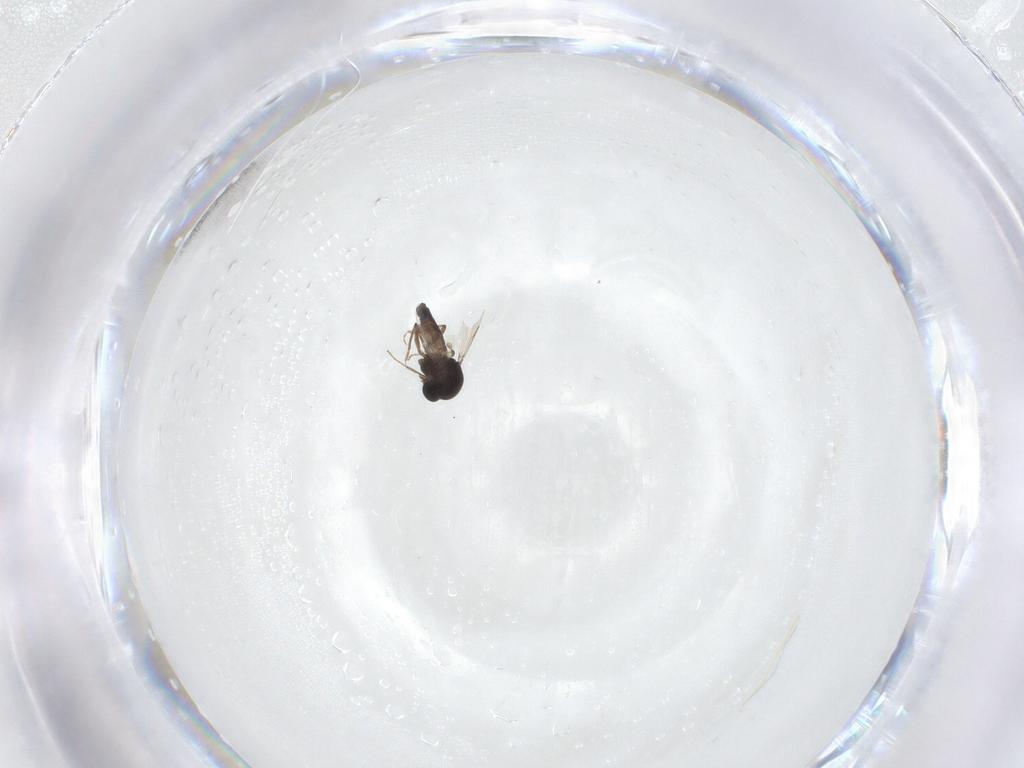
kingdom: Animalia
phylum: Arthropoda
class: Insecta
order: Diptera
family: Ceratopogonidae
